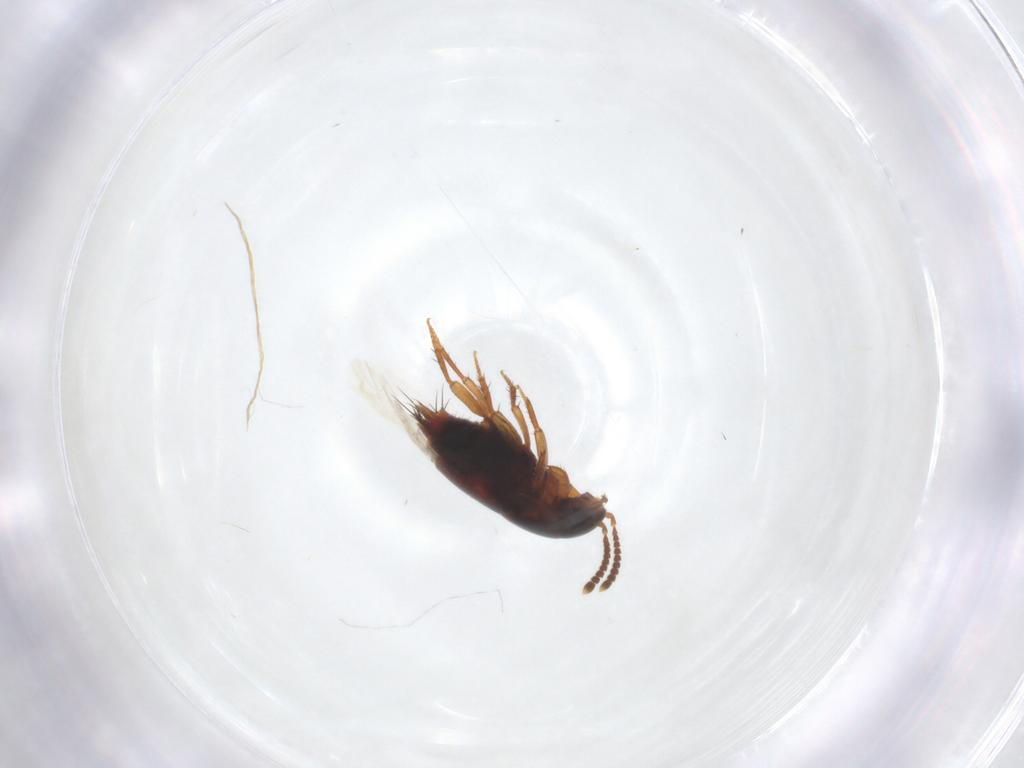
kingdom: Animalia
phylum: Arthropoda
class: Insecta
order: Coleoptera
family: Staphylinidae
